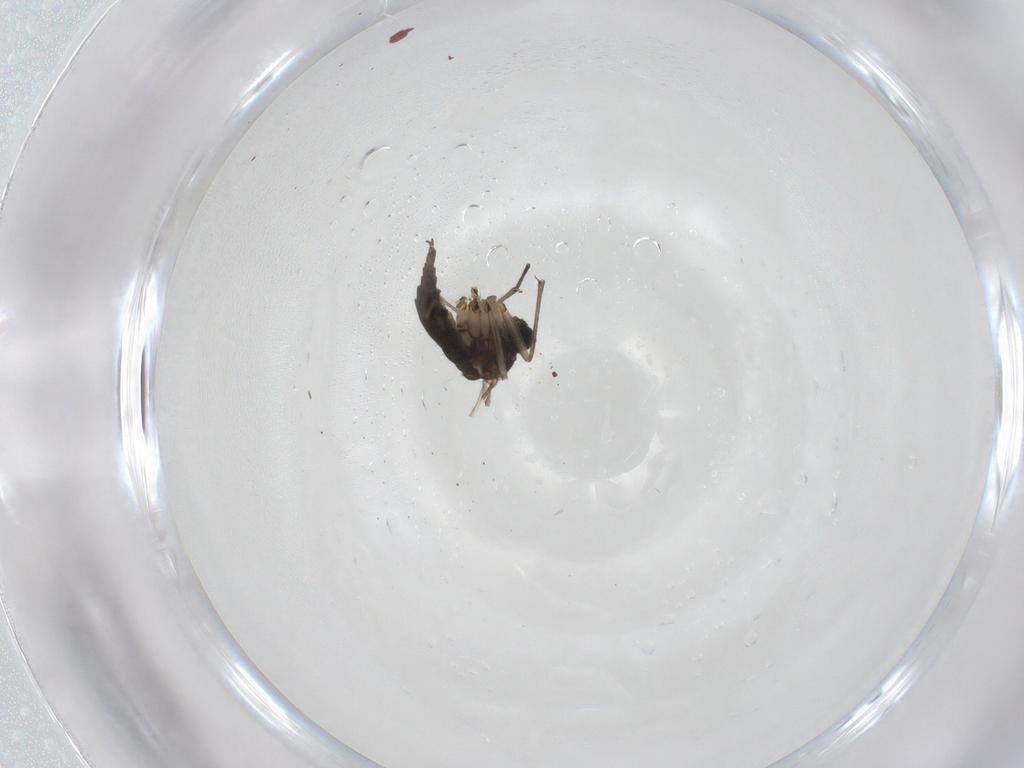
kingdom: Animalia
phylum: Arthropoda
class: Insecta
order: Diptera
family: Sciaridae
